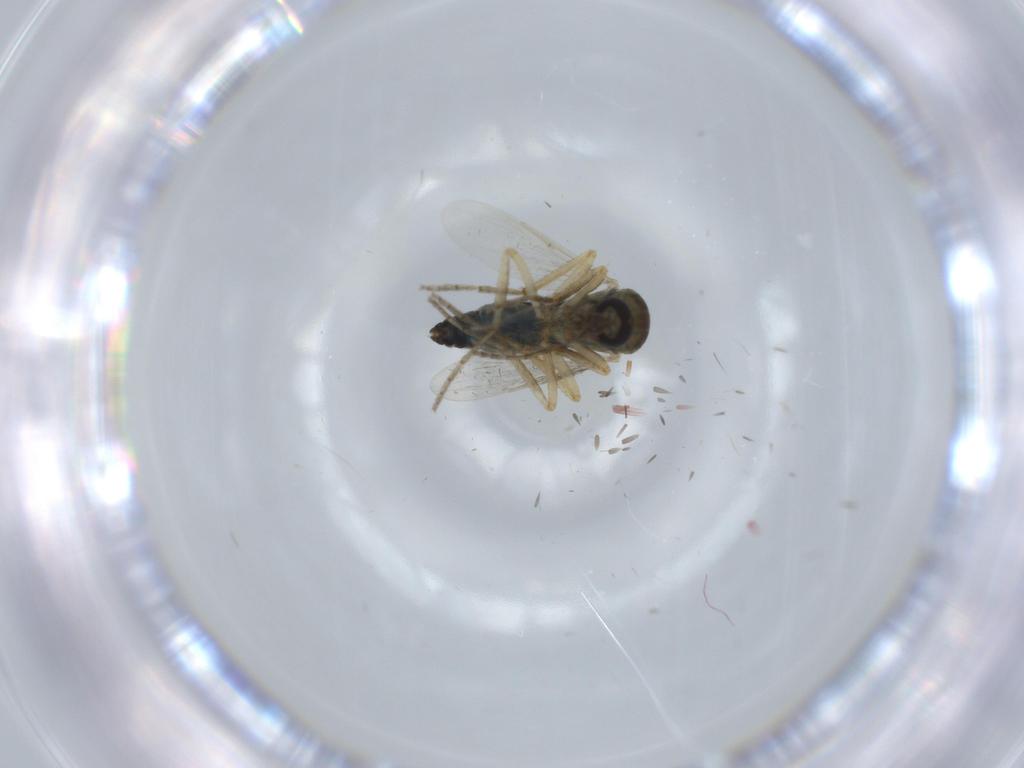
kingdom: Animalia
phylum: Arthropoda
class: Insecta
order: Diptera
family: Ceratopogonidae
